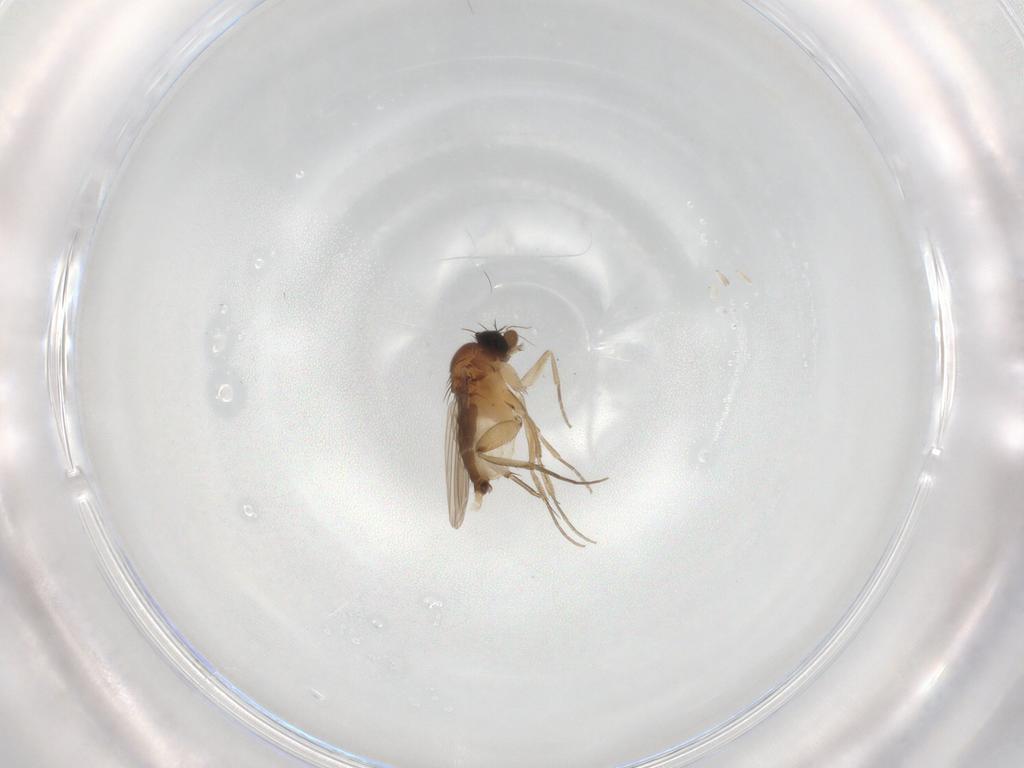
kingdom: Animalia
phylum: Arthropoda
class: Insecta
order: Diptera
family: Phoridae
